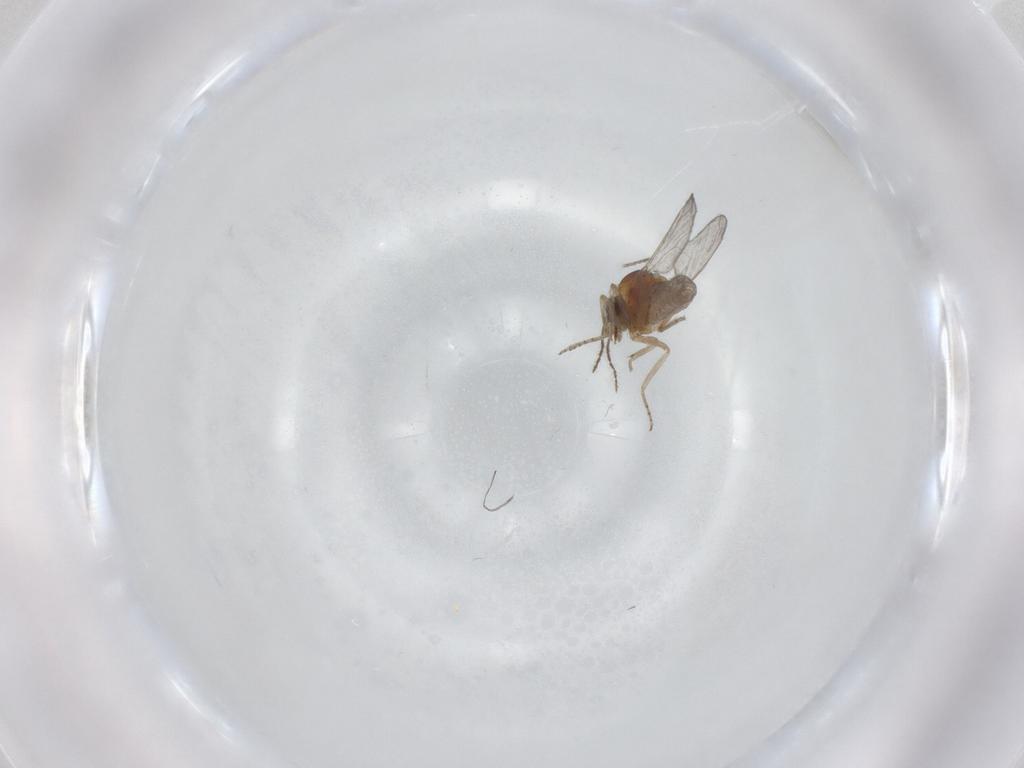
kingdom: Animalia
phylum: Arthropoda
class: Insecta
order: Diptera
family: Ceratopogonidae
